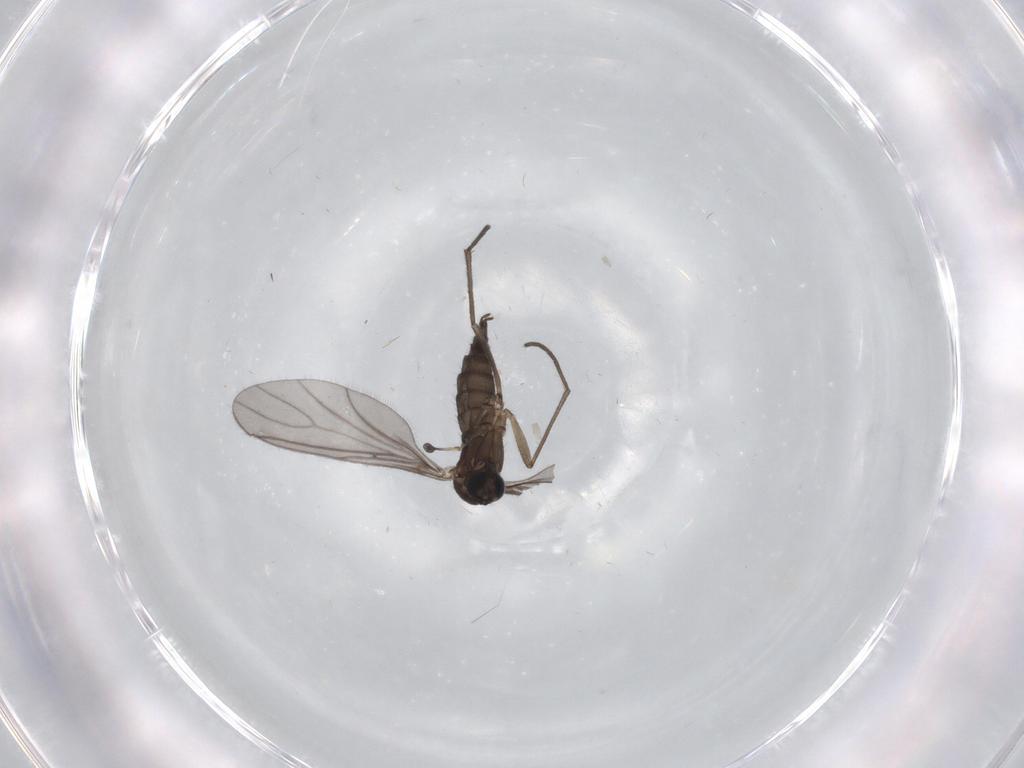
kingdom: Animalia
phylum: Arthropoda
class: Insecta
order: Diptera
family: Sciaridae
